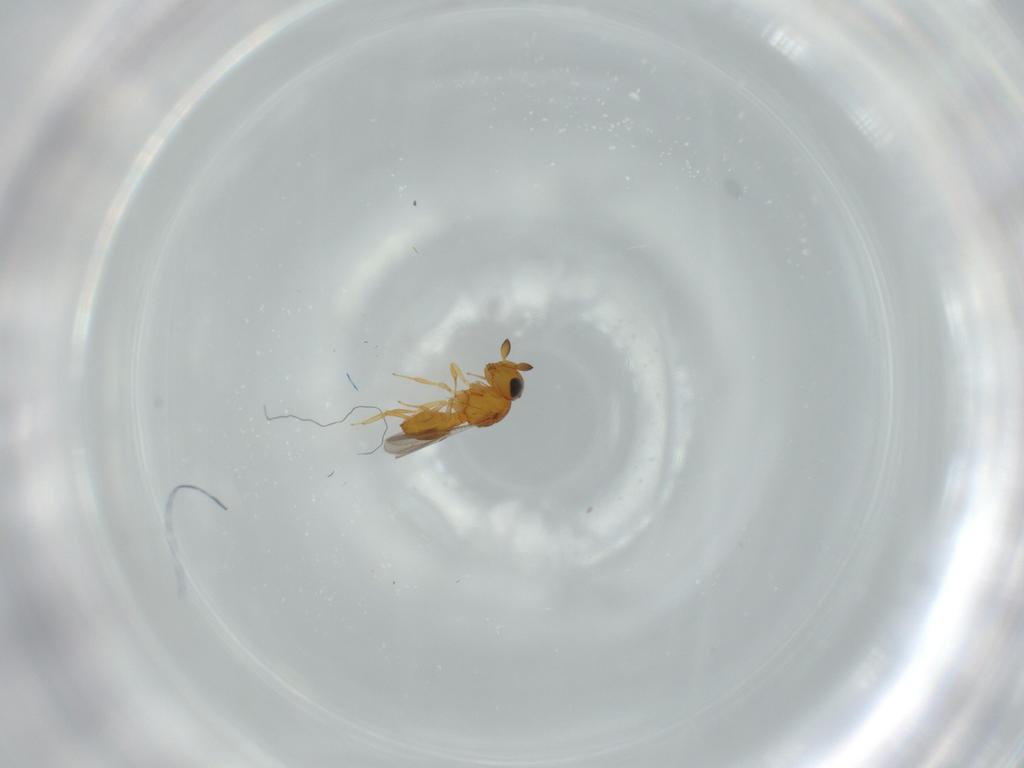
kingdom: Animalia
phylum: Arthropoda
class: Insecta
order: Hymenoptera
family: Scelionidae
